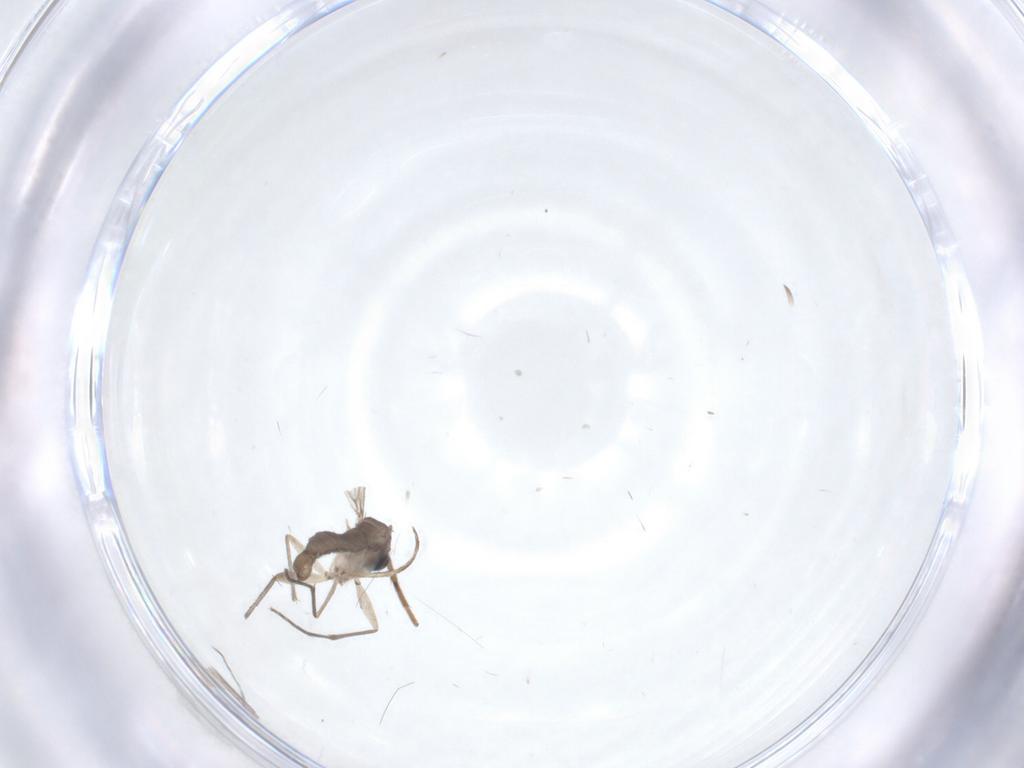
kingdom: Animalia
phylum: Arthropoda
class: Insecta
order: Diptera
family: Sciaridae
